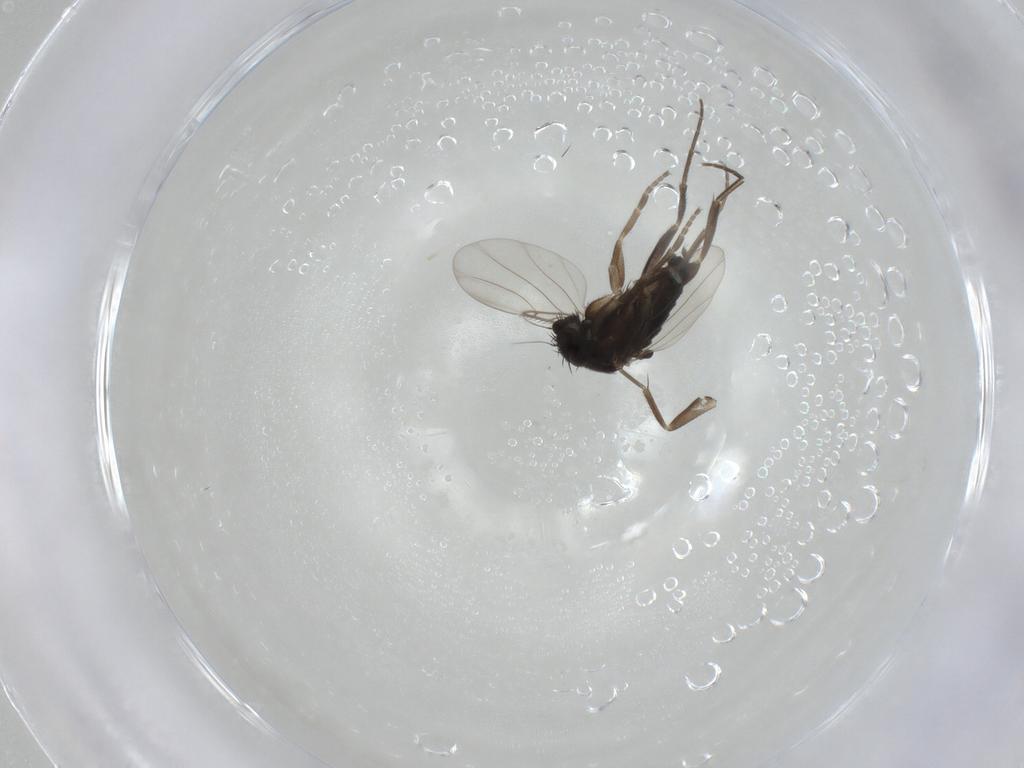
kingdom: Animalia
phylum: Arthropoda
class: Insecta
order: Diptera
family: Phoridae
